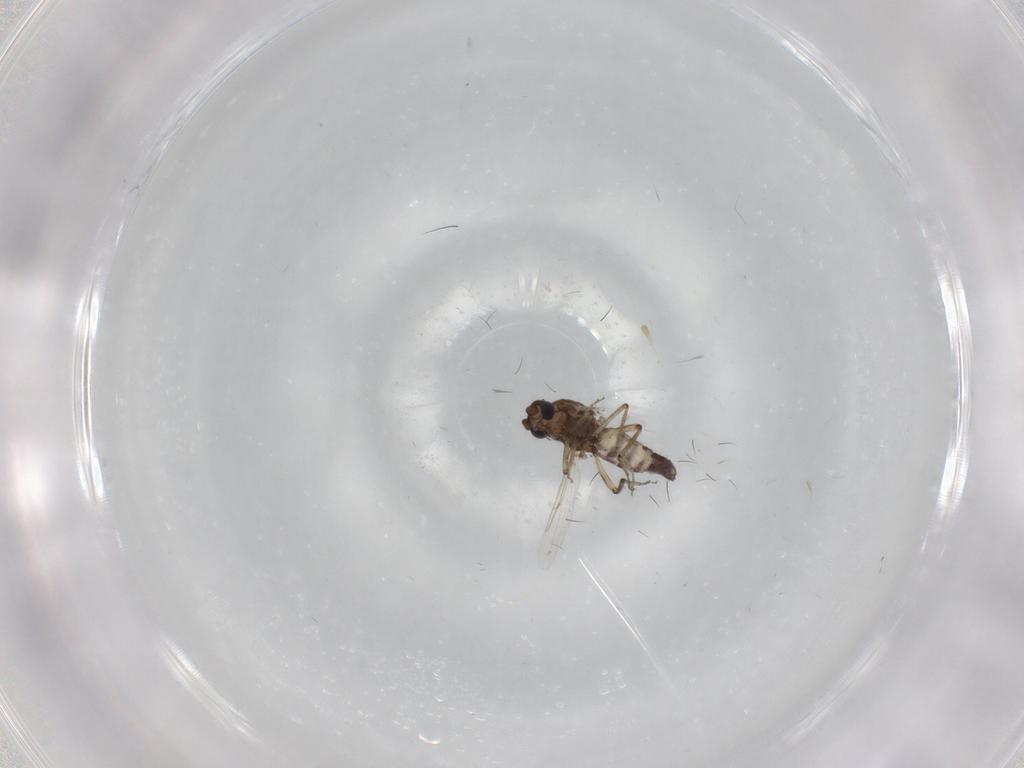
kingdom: Animalia
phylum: Arthropoda
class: Insecta
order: Diptera
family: Ceratopogonidae
